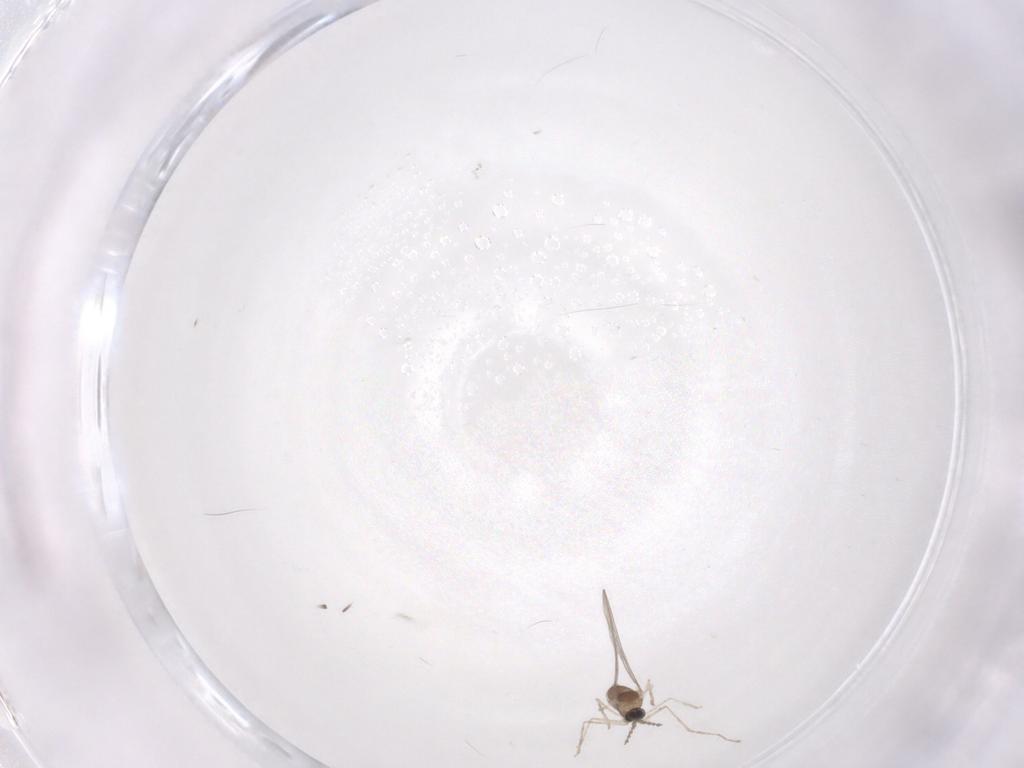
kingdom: Animalia
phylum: Arthropoda
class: Insecta
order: Diptera
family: Cecidomyiidae
